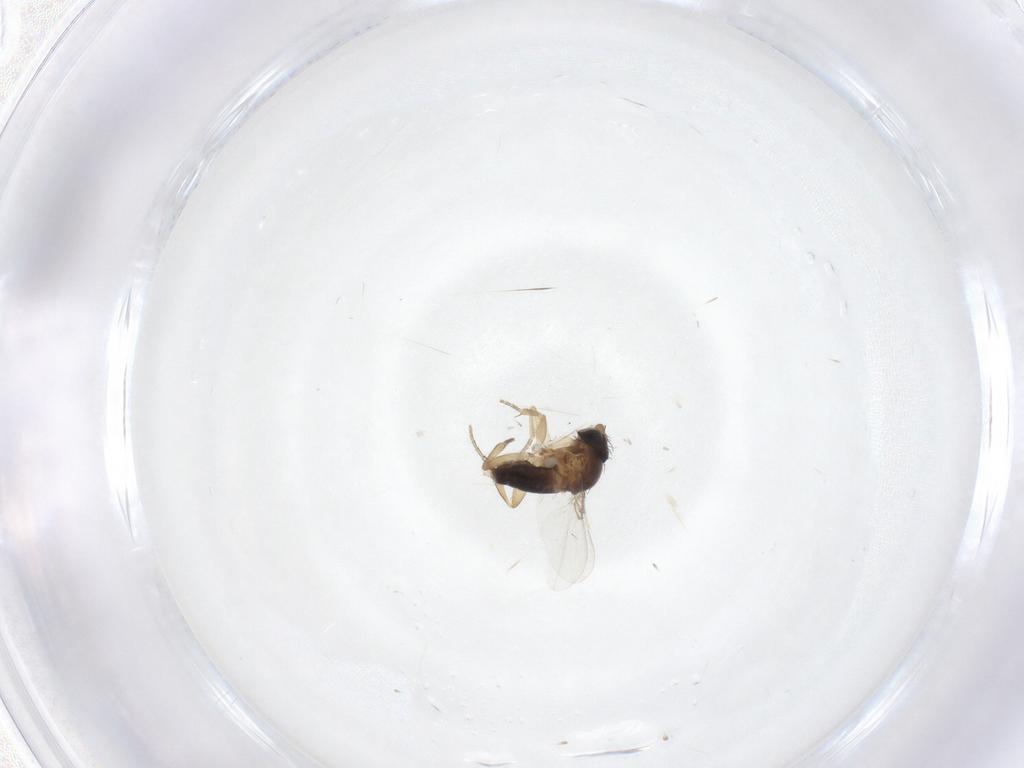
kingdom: Animalia
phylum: Arthropoda
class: Insecta
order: Diptera
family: Phoridae
